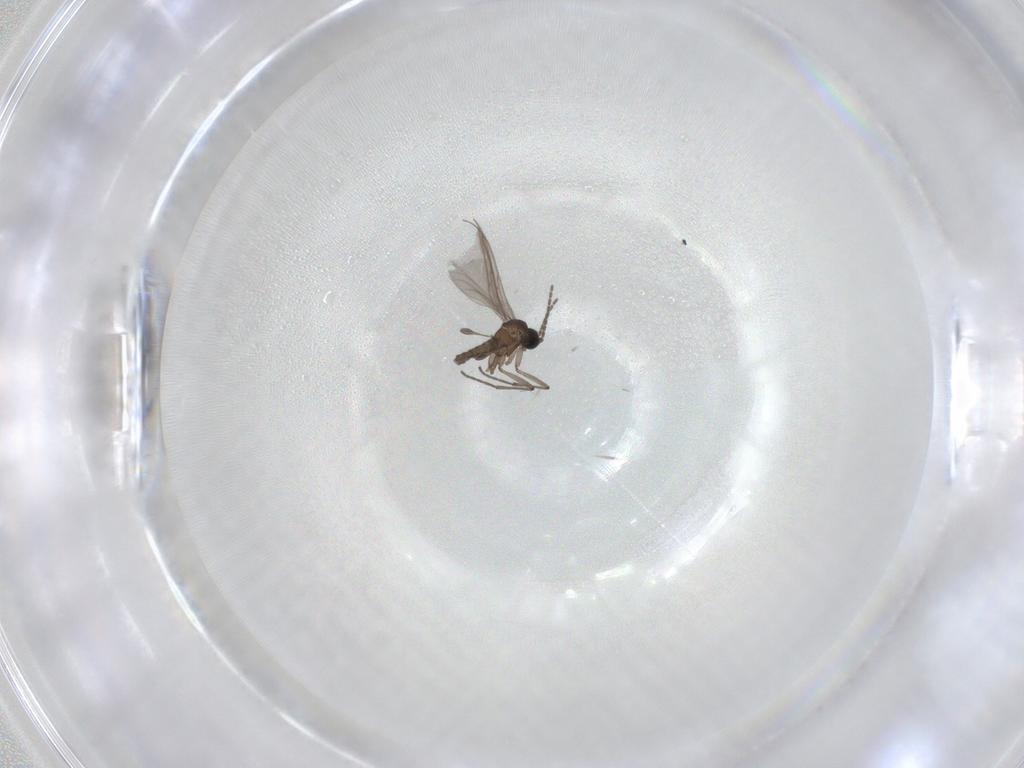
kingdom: Animalia
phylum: Arthropoda
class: Insecta
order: Diptera
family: Sciaridae
